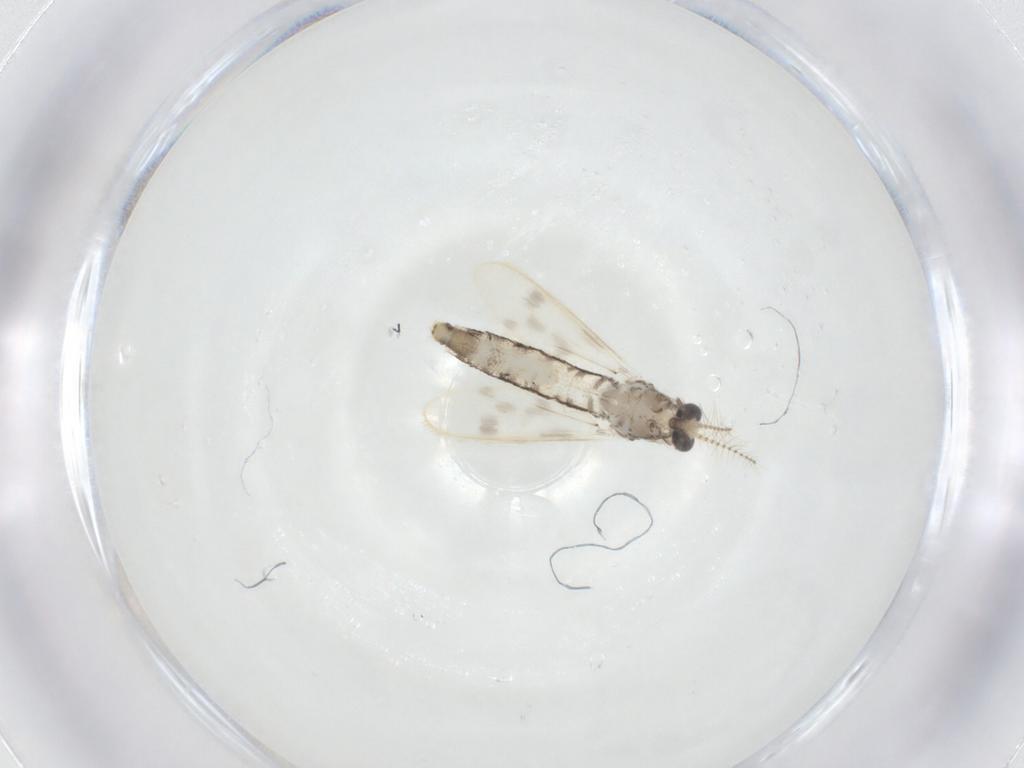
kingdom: Animalia
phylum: Arthropoda
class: Insecta
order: Diptera
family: Corethrellidae
